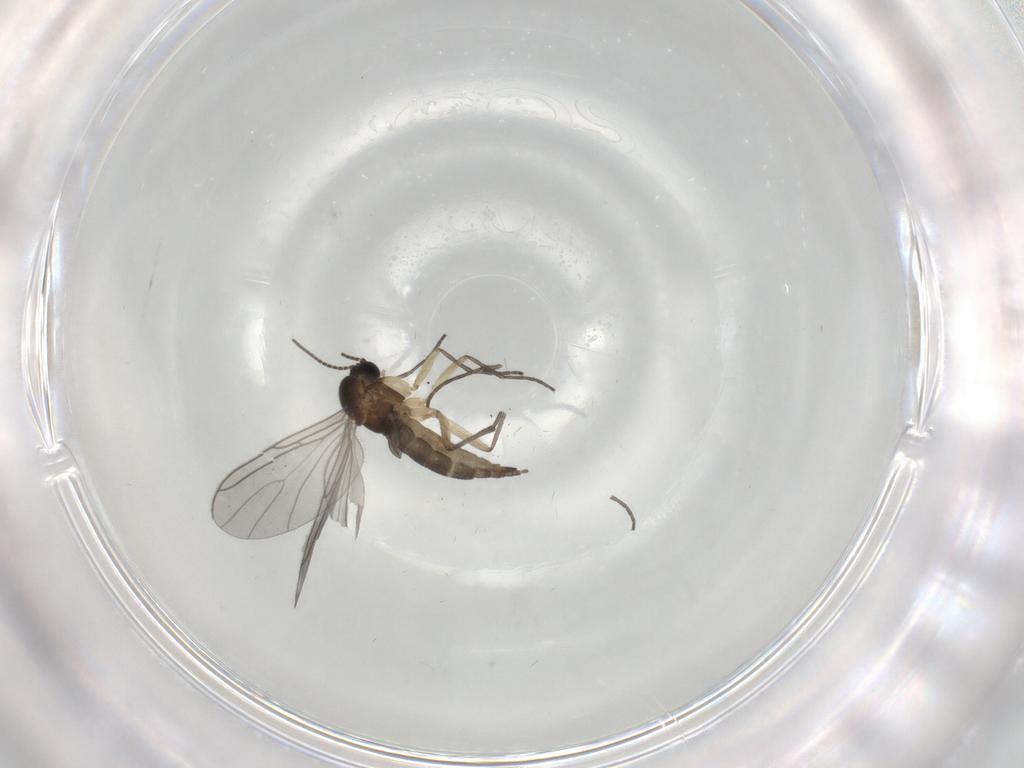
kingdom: Animalia
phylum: Arthropoda
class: Insecta
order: Diptera
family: Sciaridae
